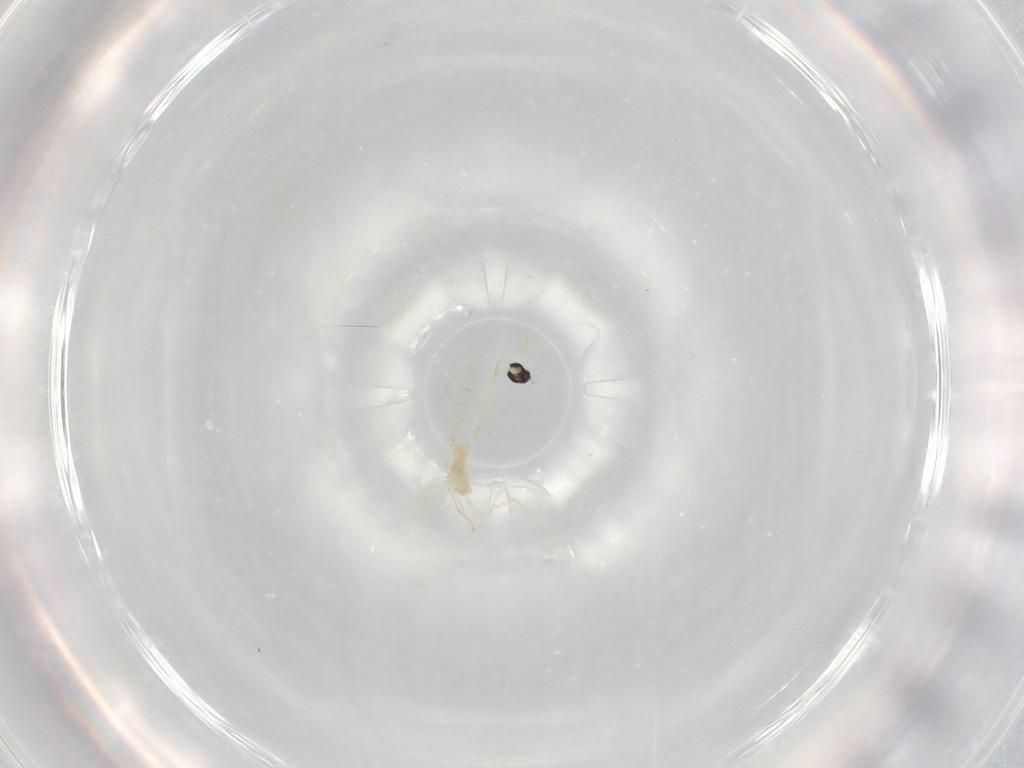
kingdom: Animalia
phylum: Arthropoda
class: Insecta
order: Diptera
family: Cecidomyiidae
